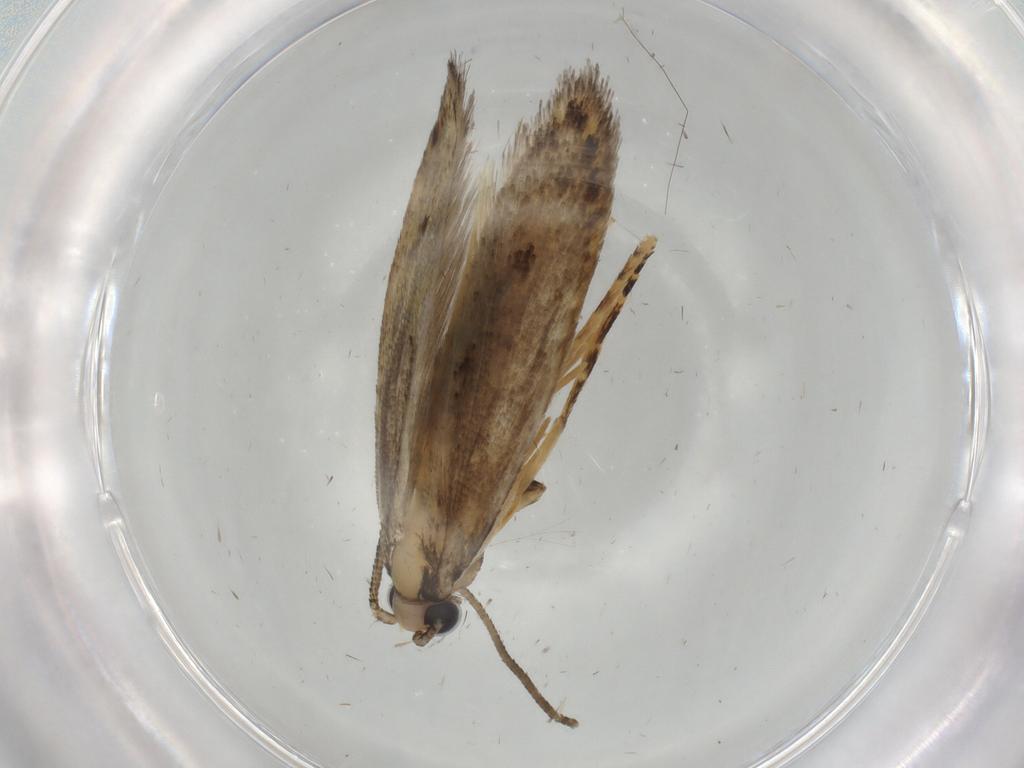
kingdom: Animalia
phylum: Arthropoda
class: Insecta
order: Lepidoptera
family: Tineidae
